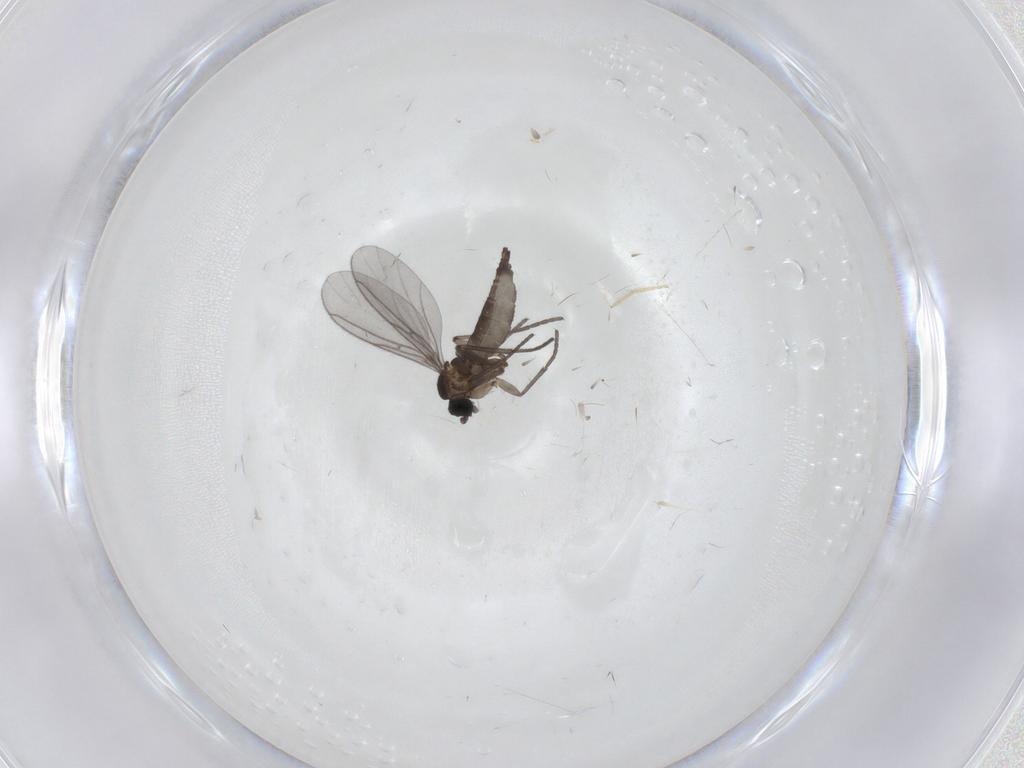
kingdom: Animalia
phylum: Arthropoda
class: Insecta
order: Diptera
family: Chironomidae
